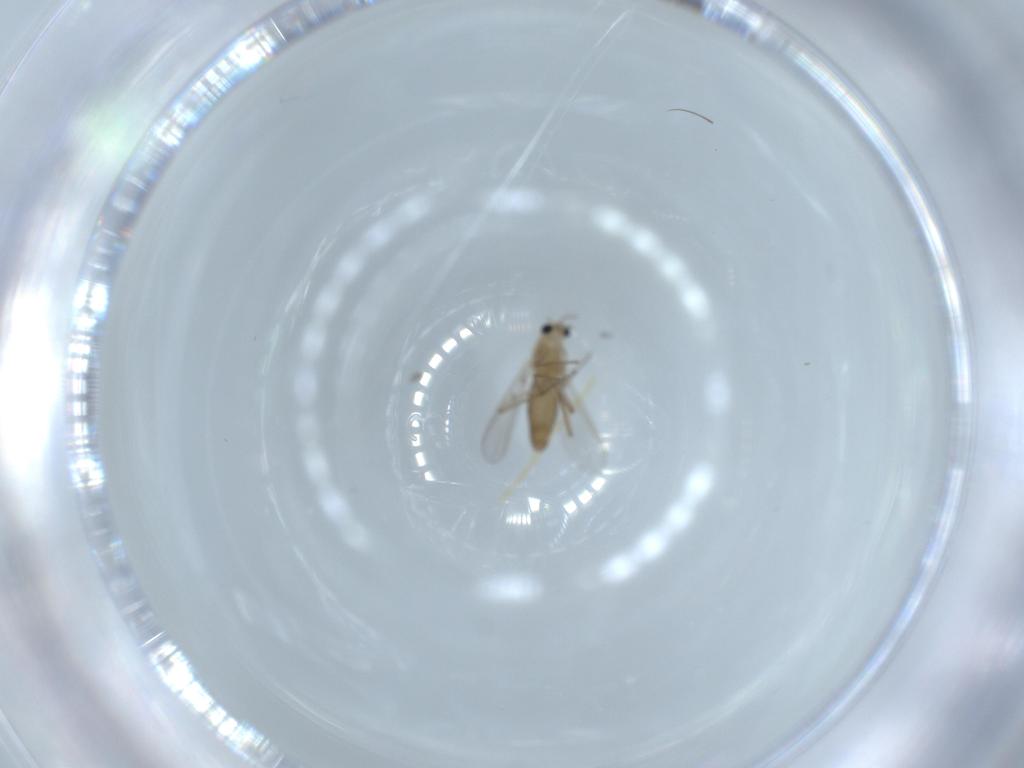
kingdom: Animalia
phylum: Arthropoda
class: Insecta
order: Diptera
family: Chironomidae
